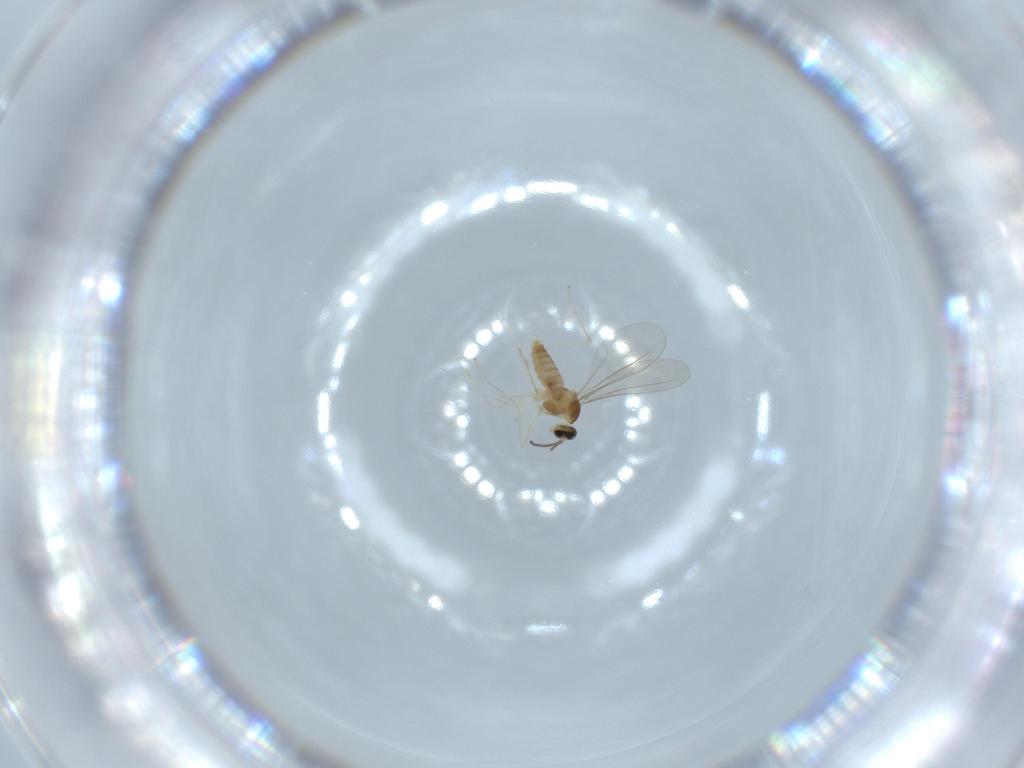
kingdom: Animalia
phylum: Arthropoda
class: Insecta
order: Diptera
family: Cecidomyiidae
